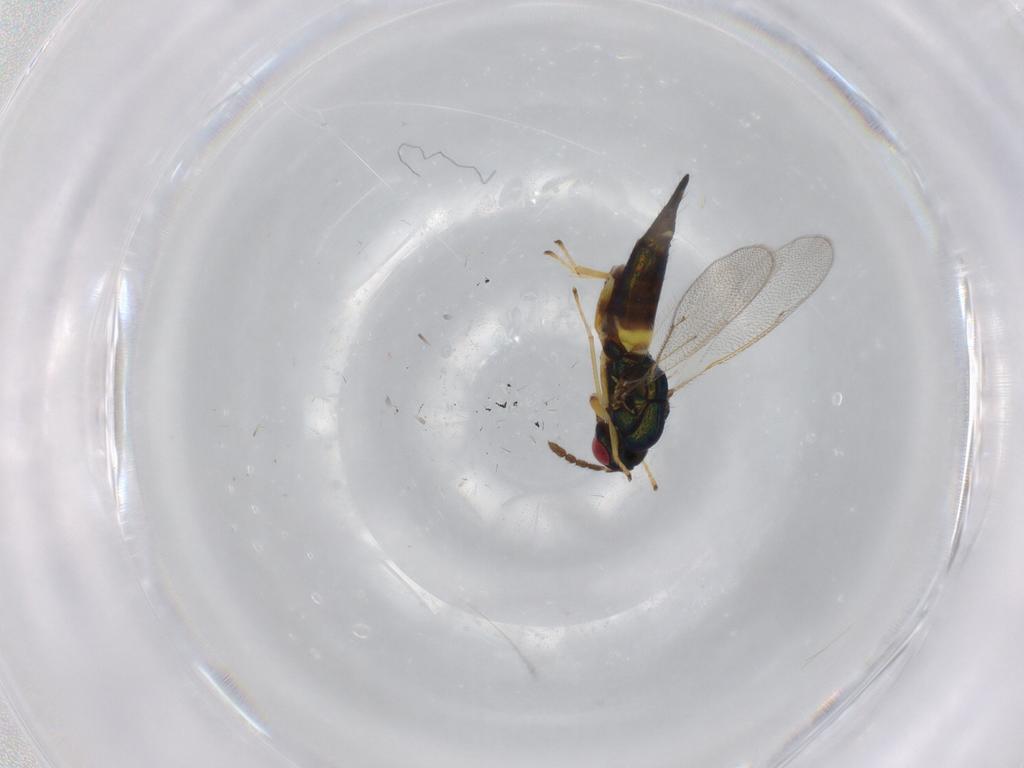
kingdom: Animalia
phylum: Arthropoda
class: Insecta
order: Hymenoptera
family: Eulophidae
